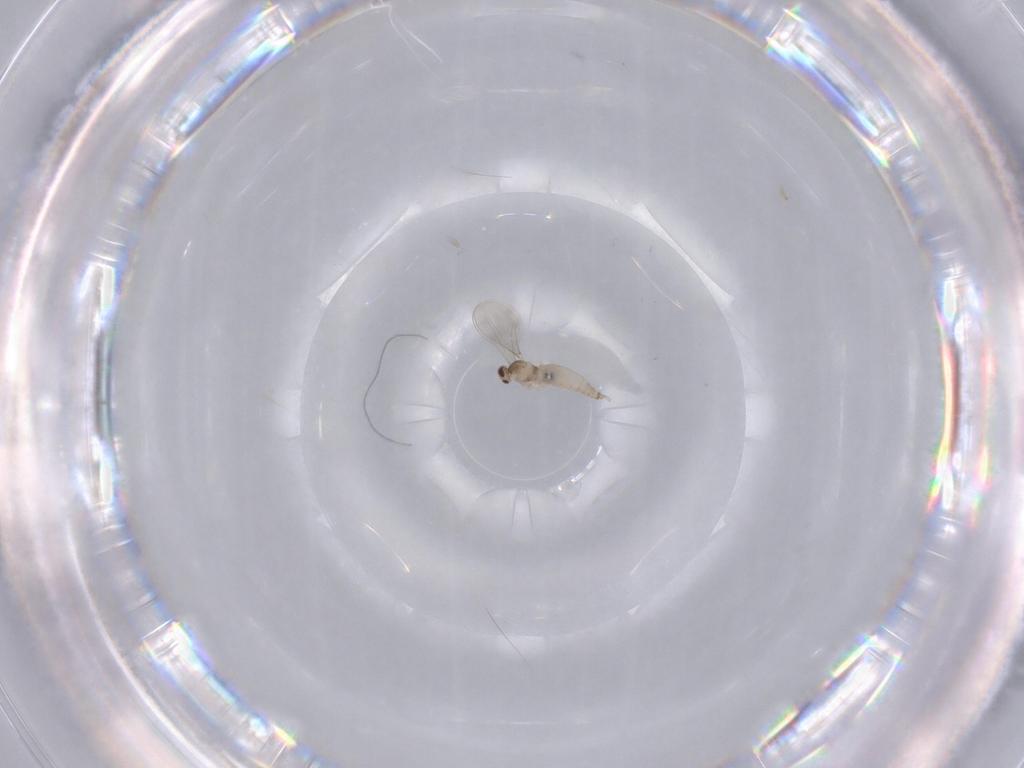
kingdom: Animalia
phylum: Arthropoda
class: Insecta
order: Diptera
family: Cecidomyiidae
